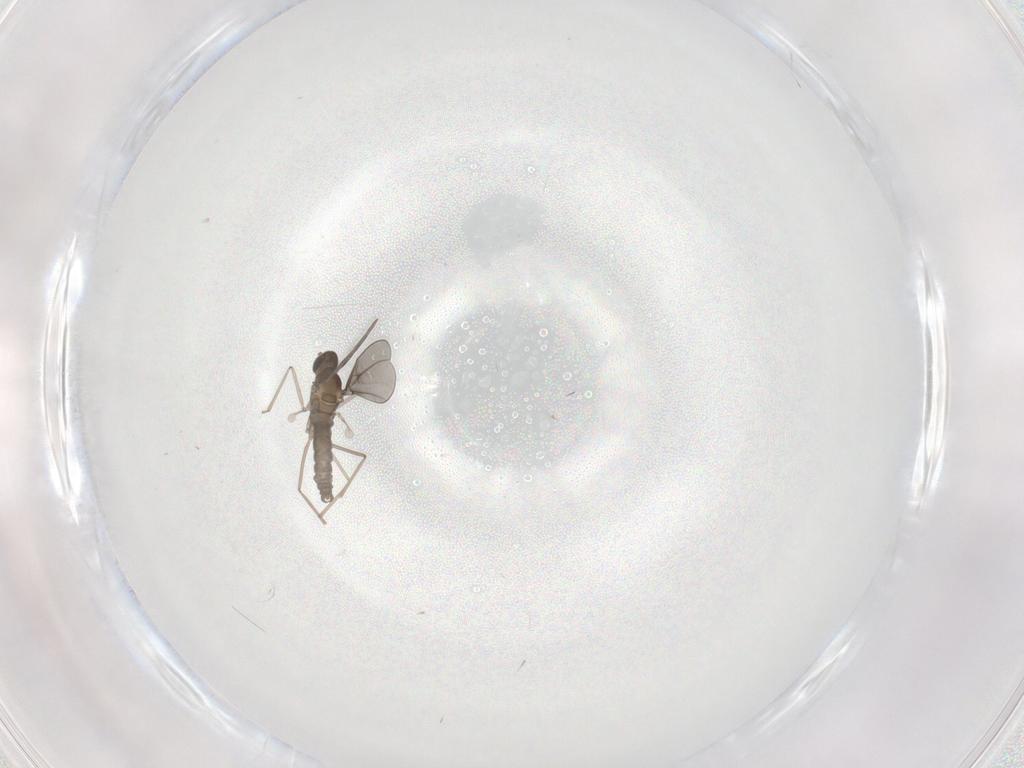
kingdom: Animalia
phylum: Arthropoda
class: Insecta
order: Diptera
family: Cecidomyiidae
